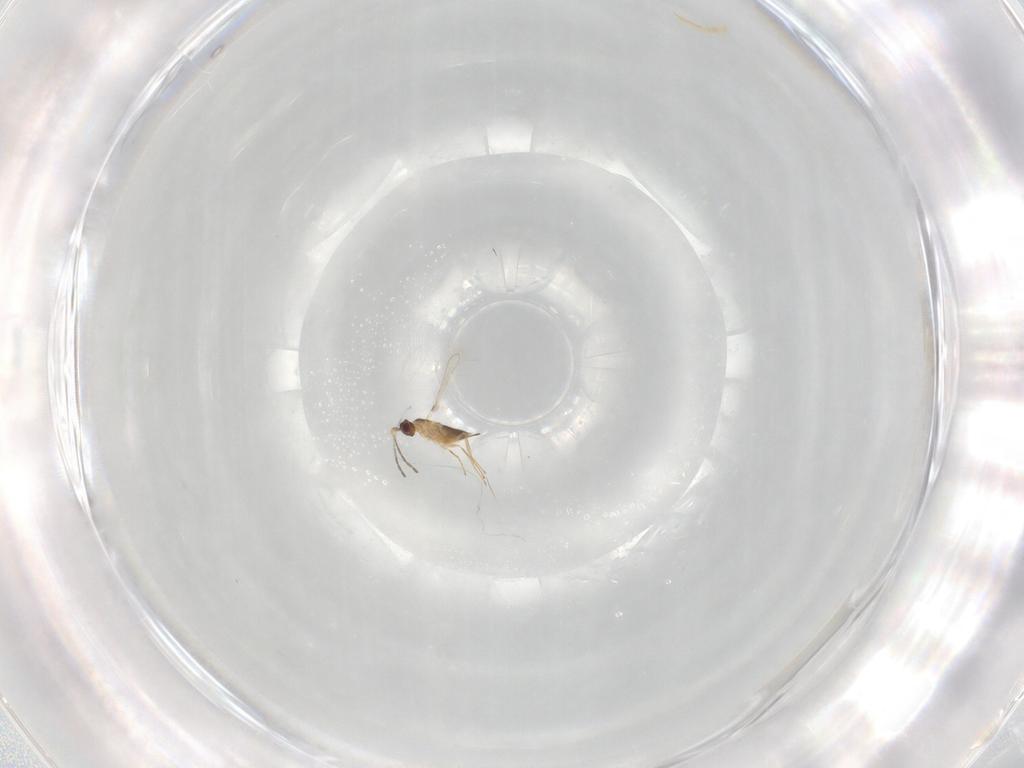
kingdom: Animalia
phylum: Arthropoda
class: Insecta
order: Hymenoptera
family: Mymaridae
